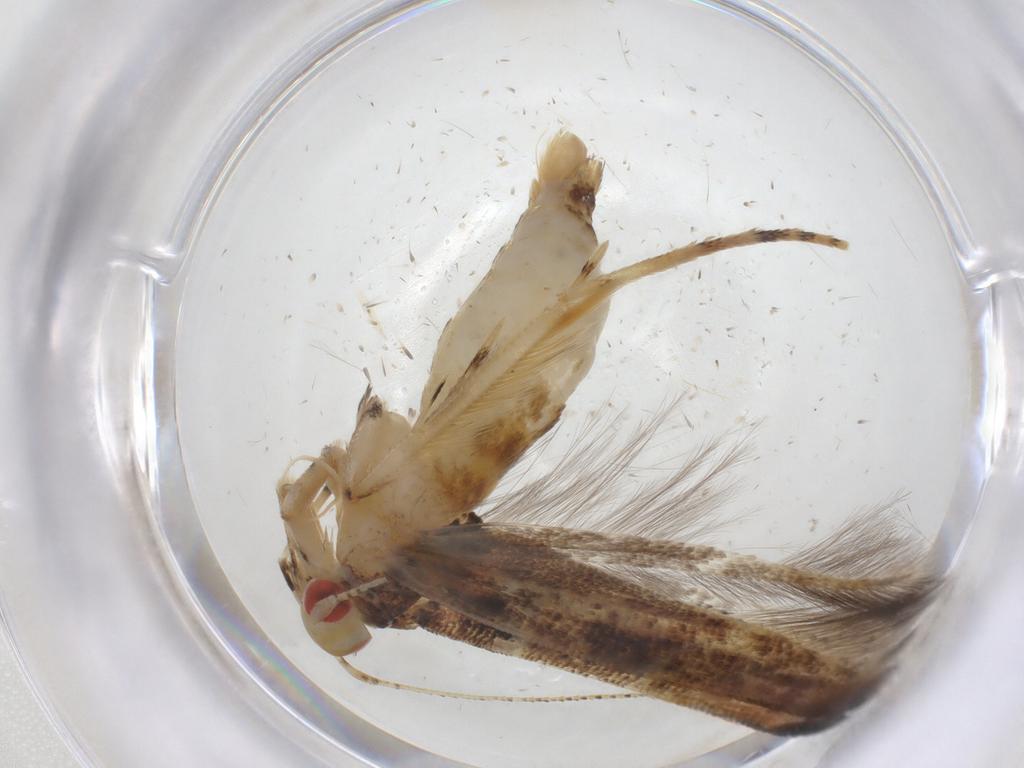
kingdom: Animalia
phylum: Arthropoda
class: Insecta
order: Lepidoptera
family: Cosmopterigidae
